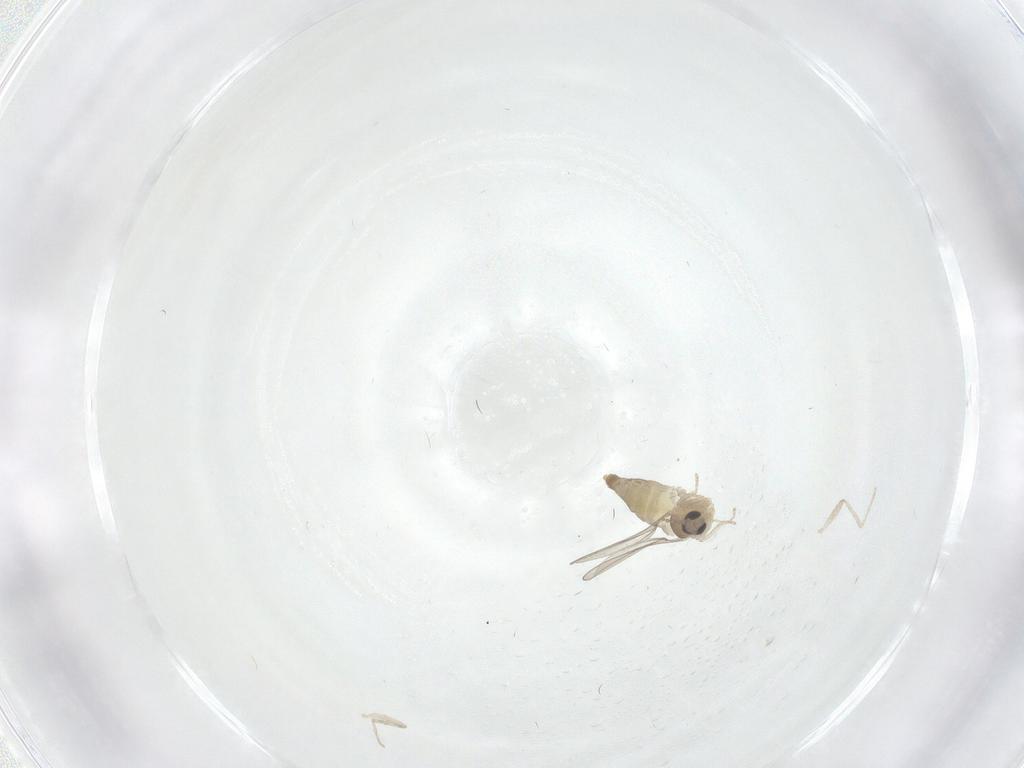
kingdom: Animalia
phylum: Arthropoda
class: Insecta
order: Diptera
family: Cecidomyiidae
